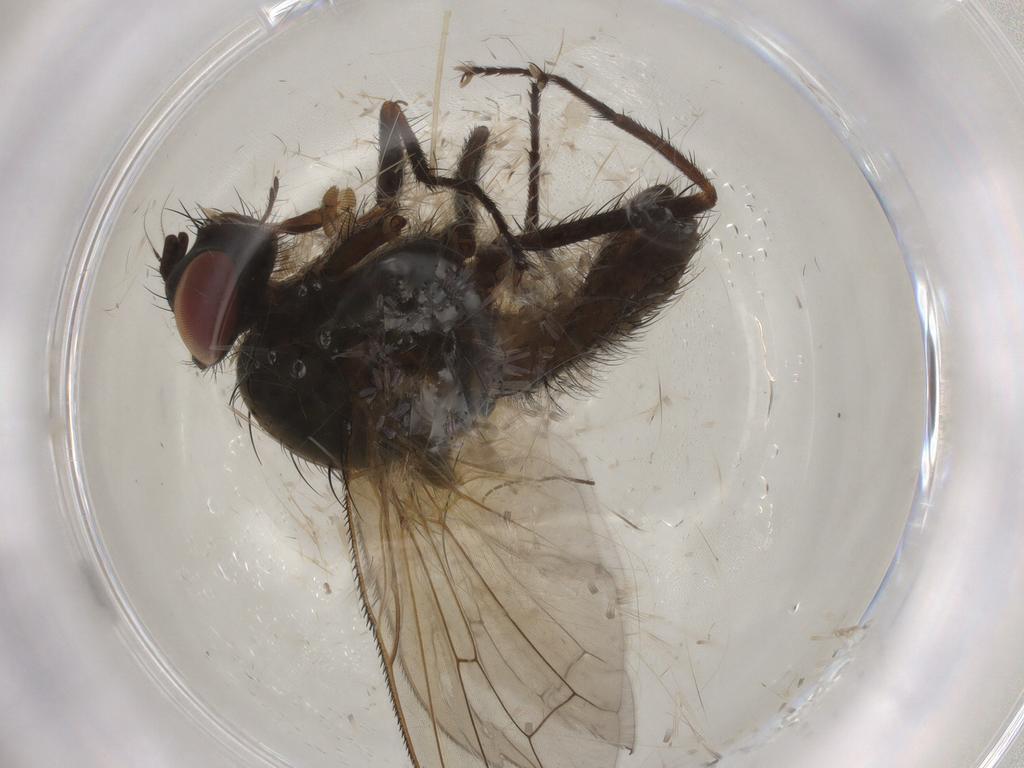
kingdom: Animalia
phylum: Arthropoda
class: Insecta
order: Diptera
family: Anthomyiidae
